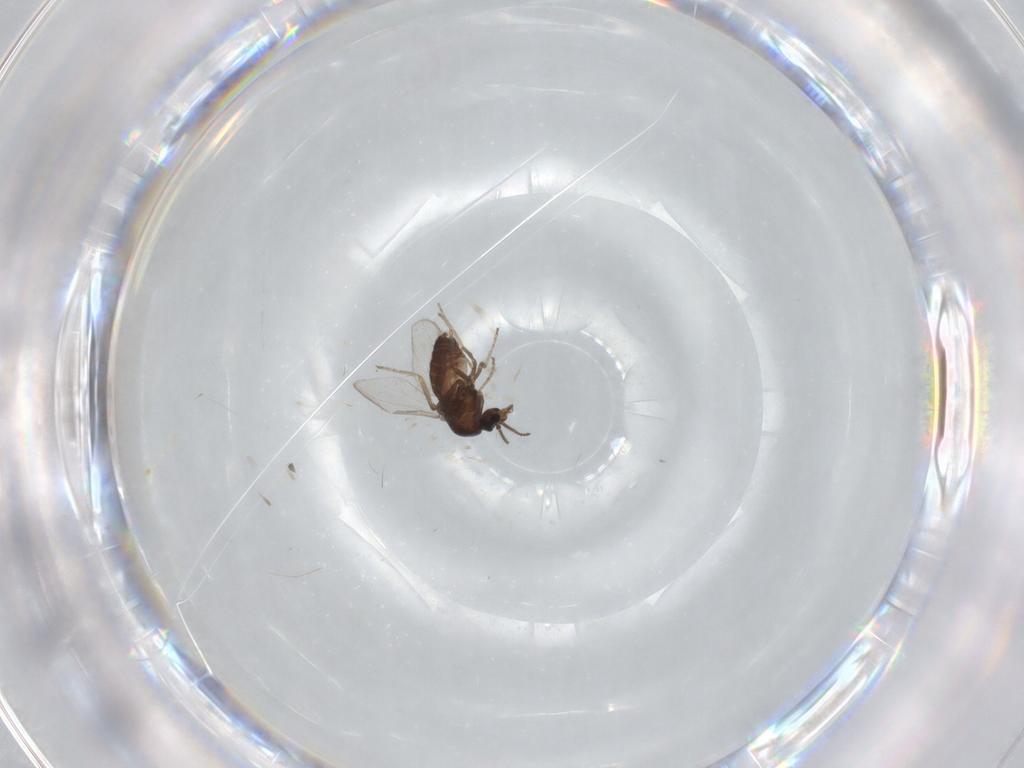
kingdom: Animalia
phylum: Arthropoda
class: Insecta
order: Diptera
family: Ceratopogonidae
